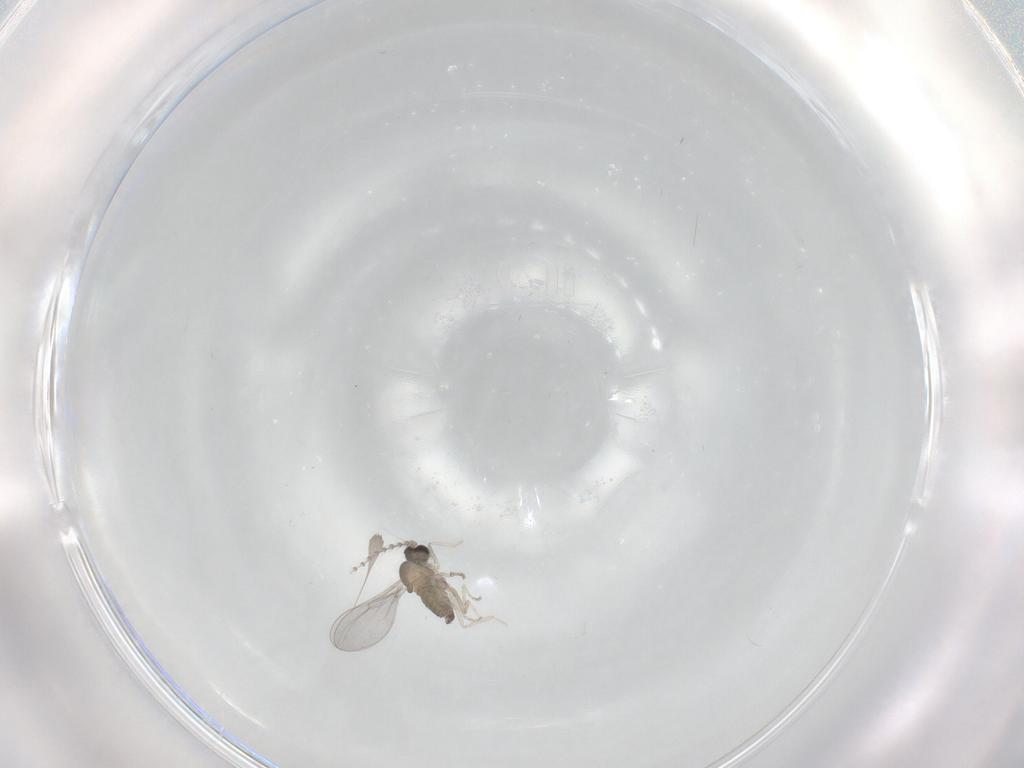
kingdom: Animalia
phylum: Arthropoda
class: Insecta
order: Diptera
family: Cecidomyiidae
